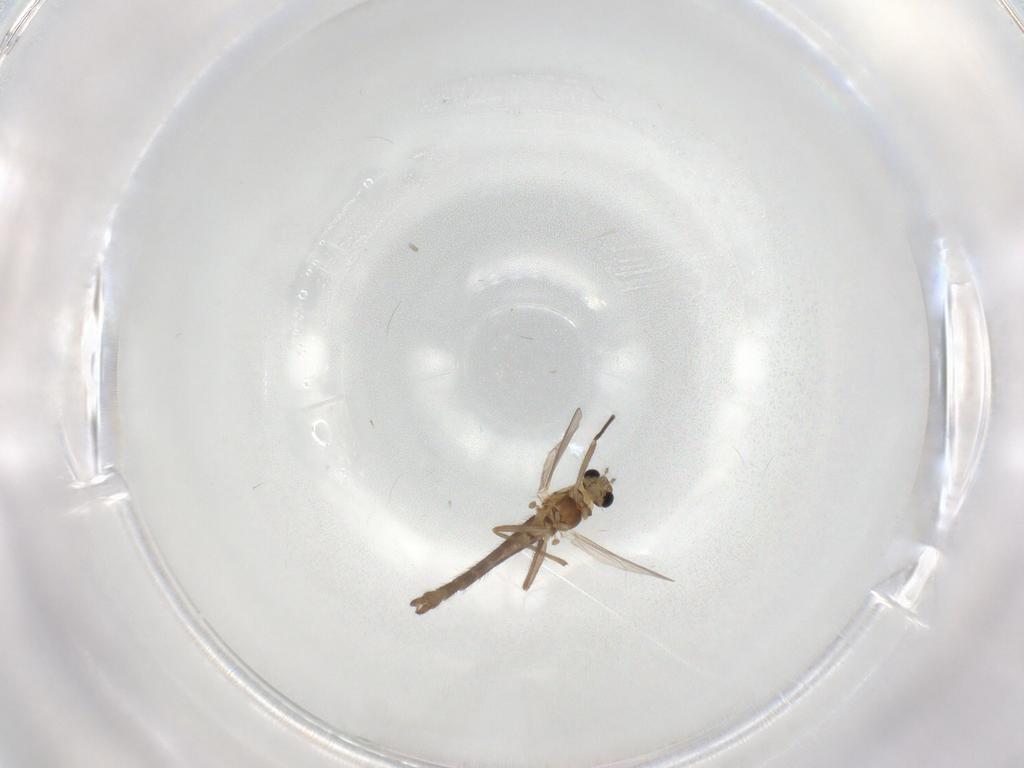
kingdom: Animalia
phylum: Arthropoda
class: Insecta
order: Diptera
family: Chironomidae
